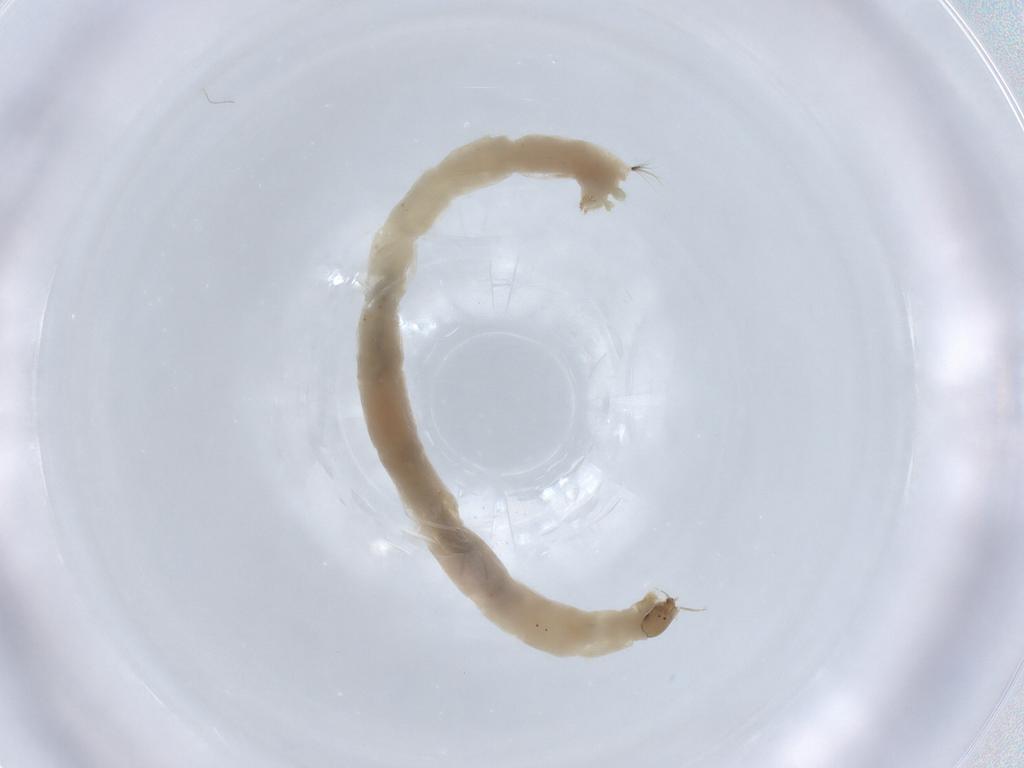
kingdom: Animalia
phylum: Arthropoda
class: Insecta
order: Diptera
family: Chironomidae
